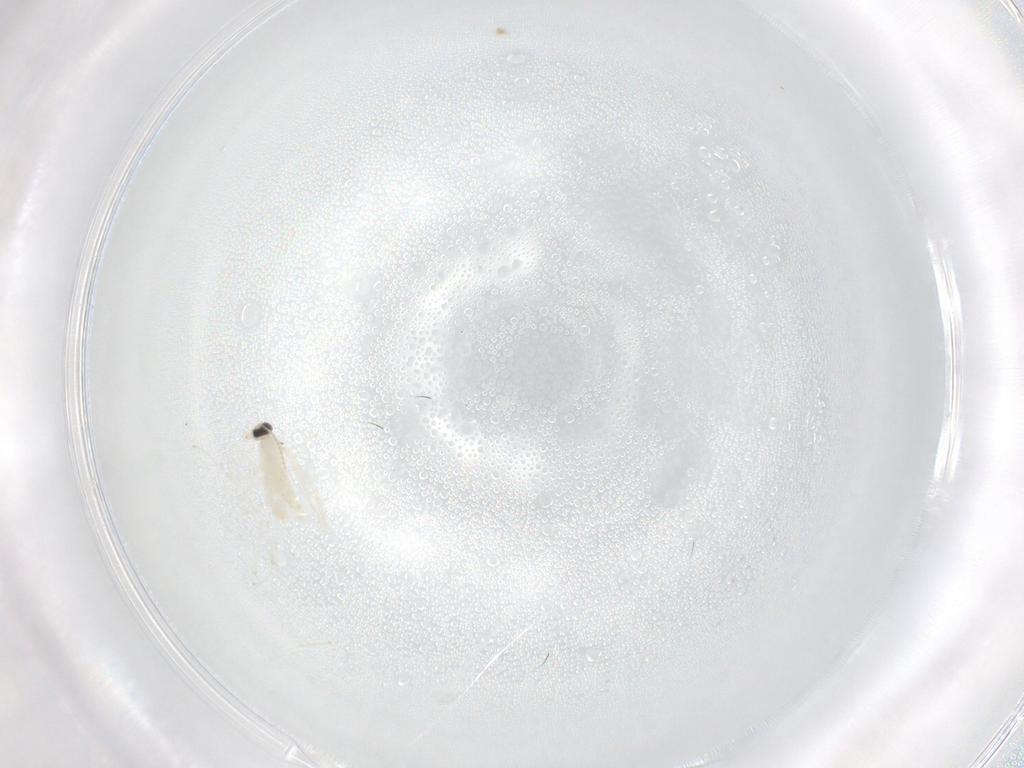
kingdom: Animalia
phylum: Arthropoda
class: Insecta
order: Diptera
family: Cecidomyiidae
